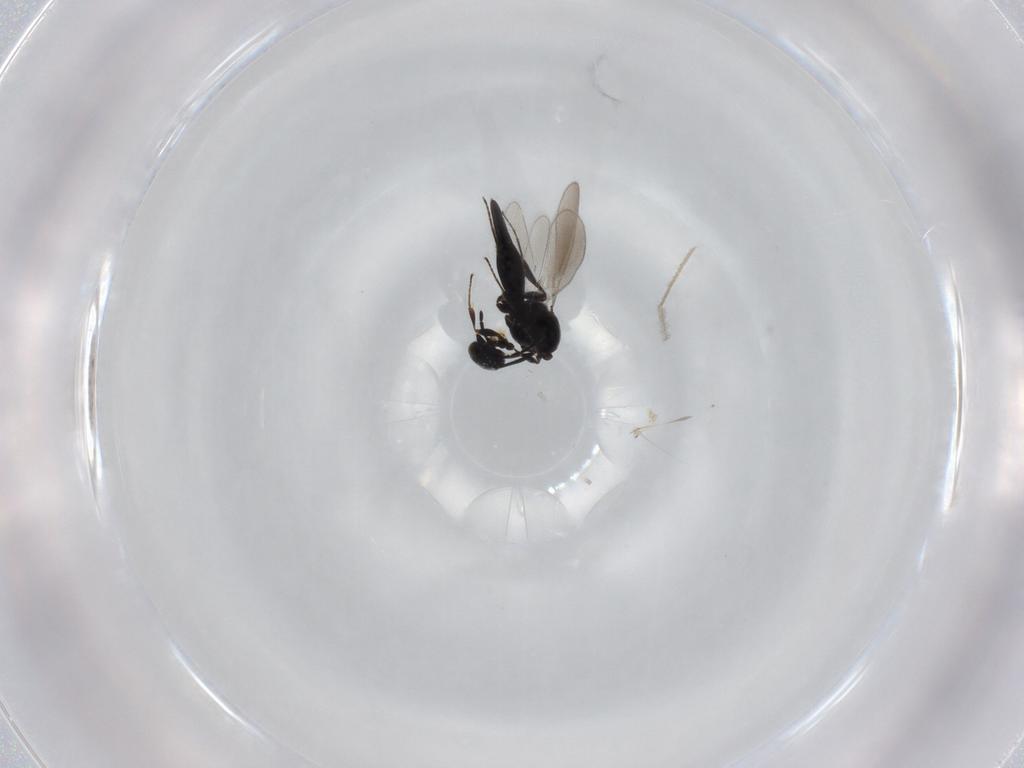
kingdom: Animalia
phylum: Arthropoda
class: Insecta
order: Hymenoptera
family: Platygastridae
